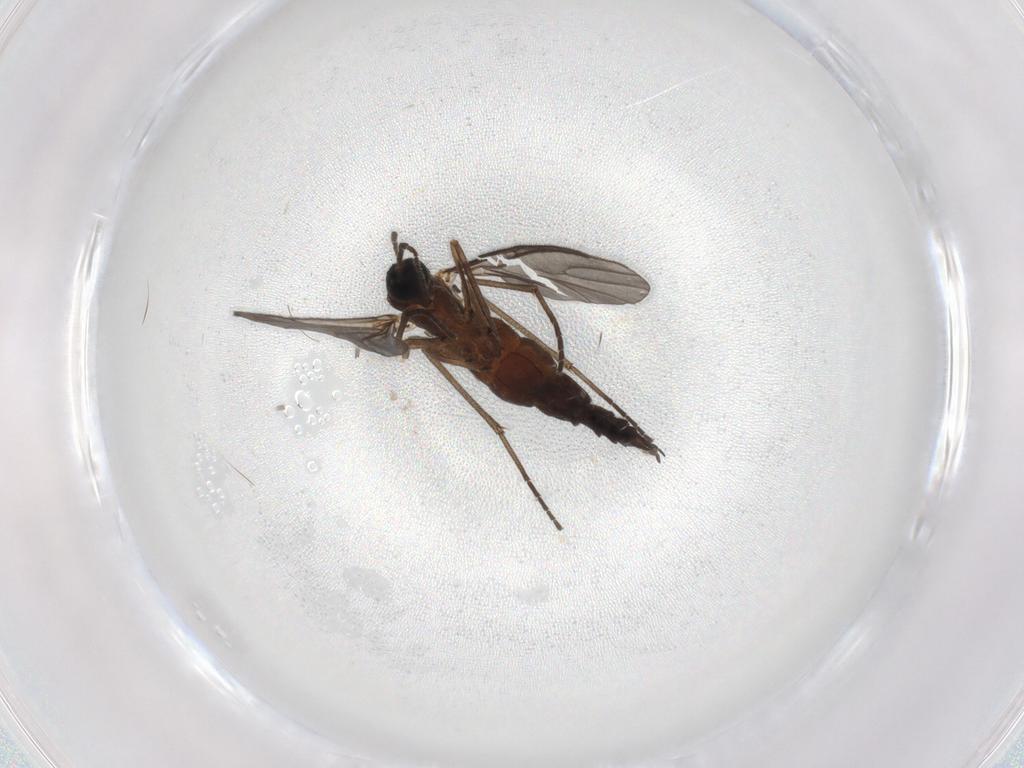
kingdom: Animalia
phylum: Arthropoda
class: Insecta
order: Diptera
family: Sciaridae
